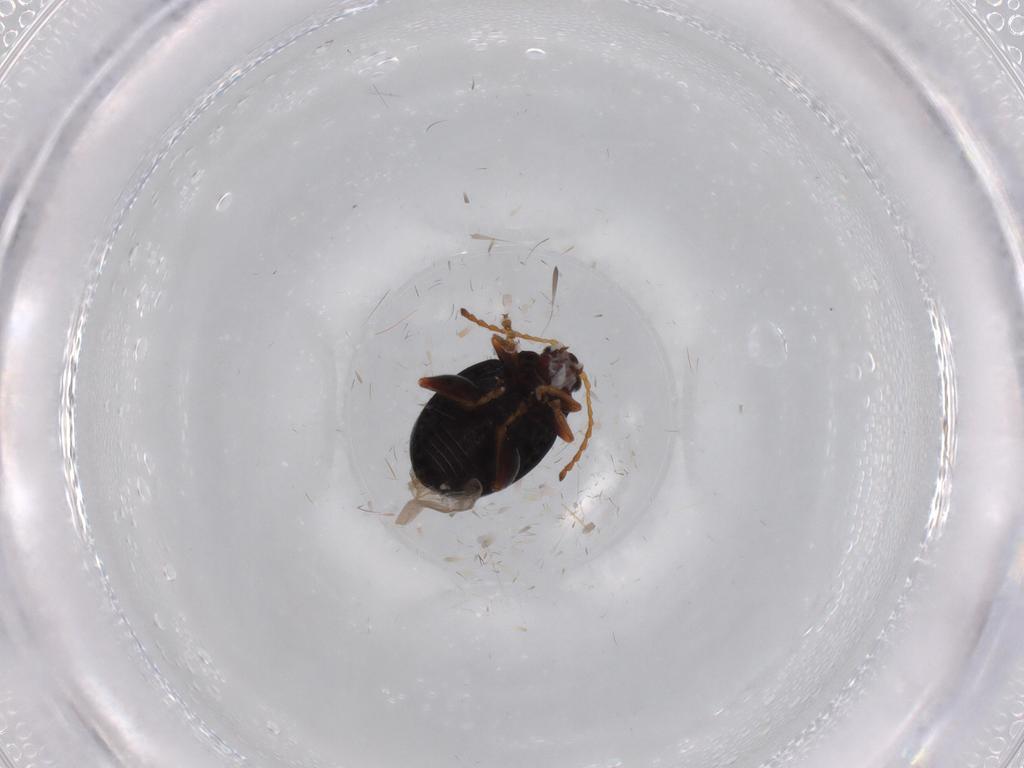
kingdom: Animalia
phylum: Arthropoda
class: Insecta
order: Coleoptera
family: Chrysomelidae
